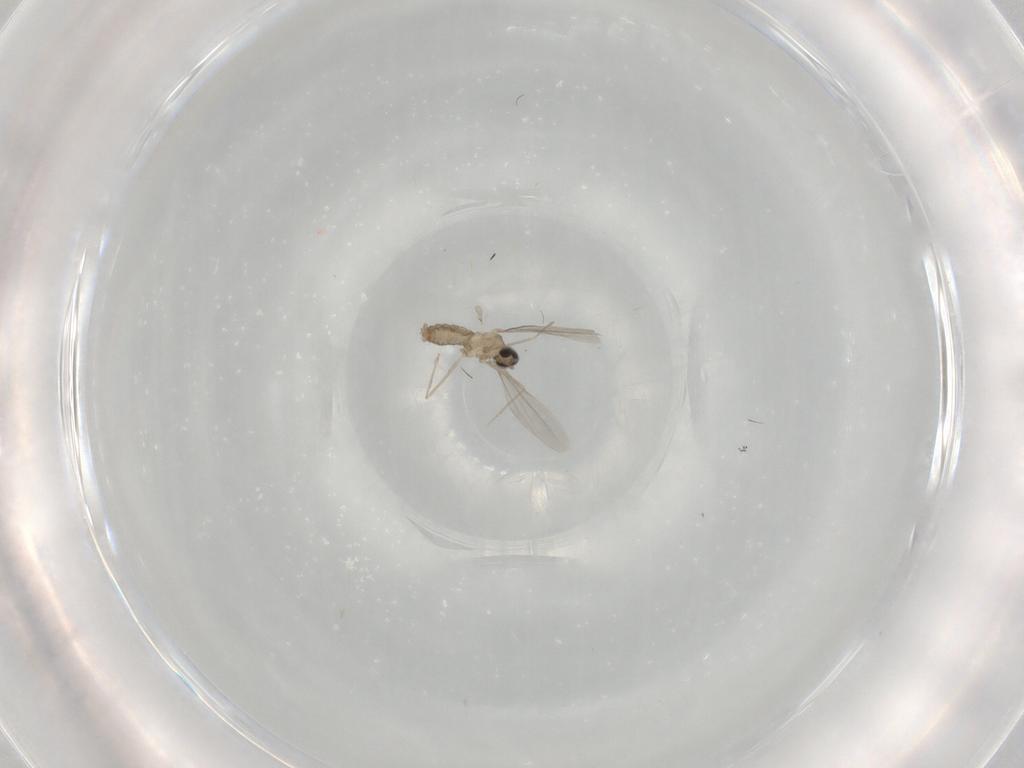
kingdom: Animalia
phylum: Arthropoda
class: Insecta
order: Diptera
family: Cecidomyiidae
